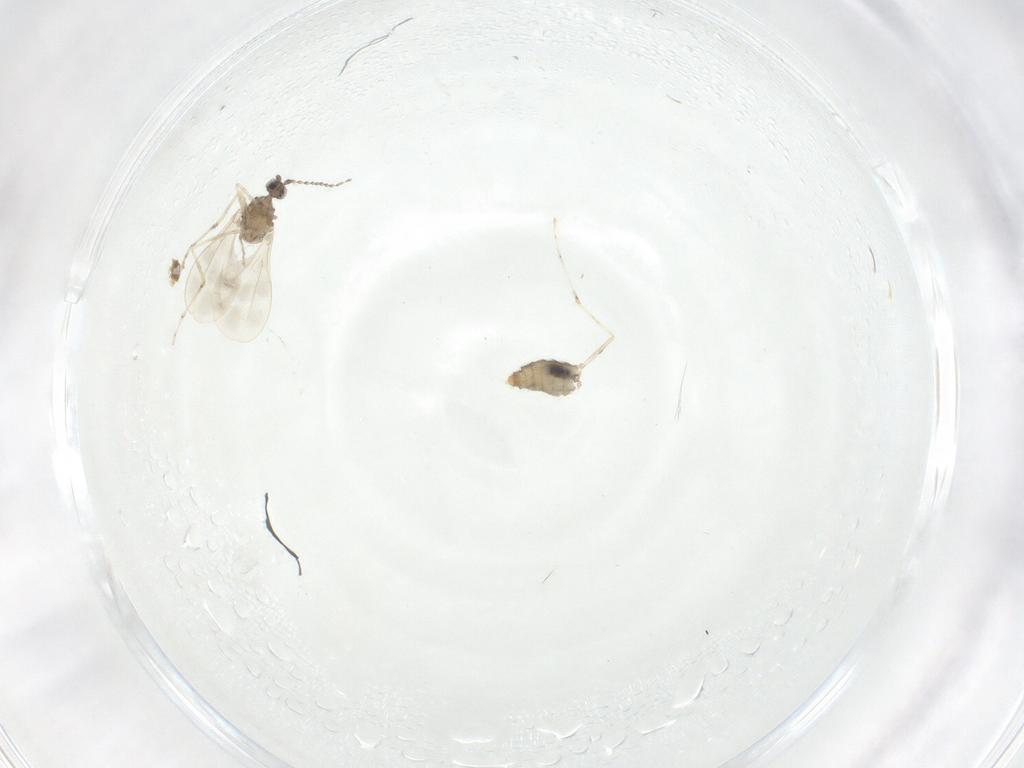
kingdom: Animalia
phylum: Arthropoda
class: Insecta
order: Diptera
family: Cecidomyiidae
